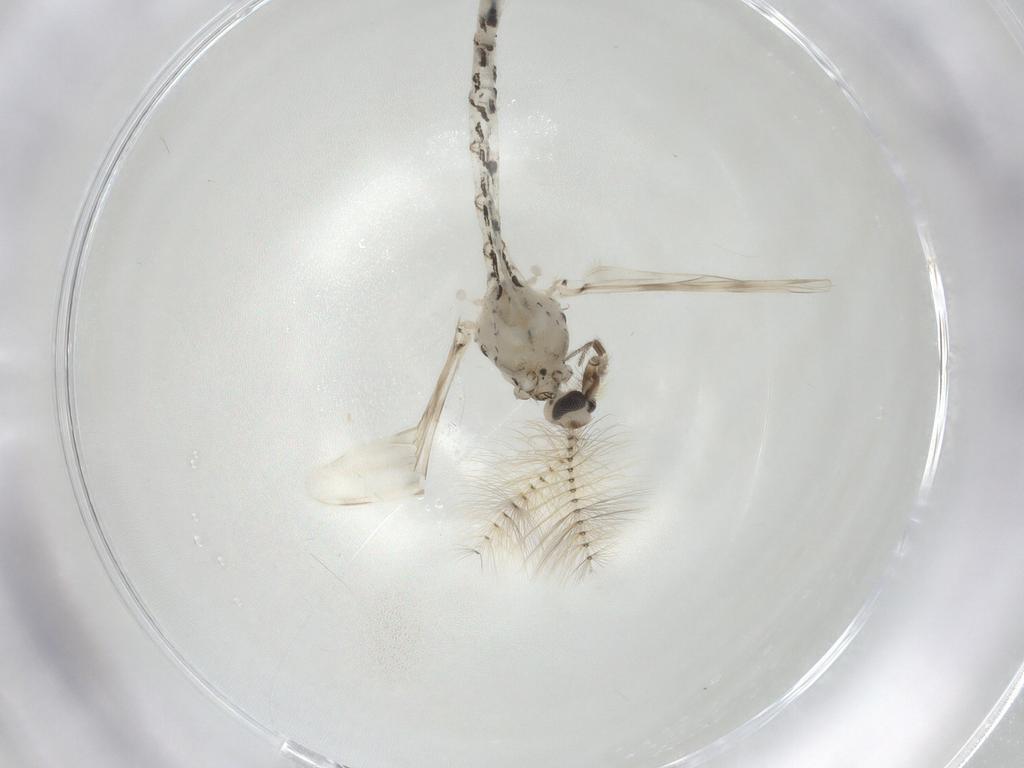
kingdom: Animalia
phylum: Arthropoda
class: Insecta
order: Diptera
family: Chaoboridae
